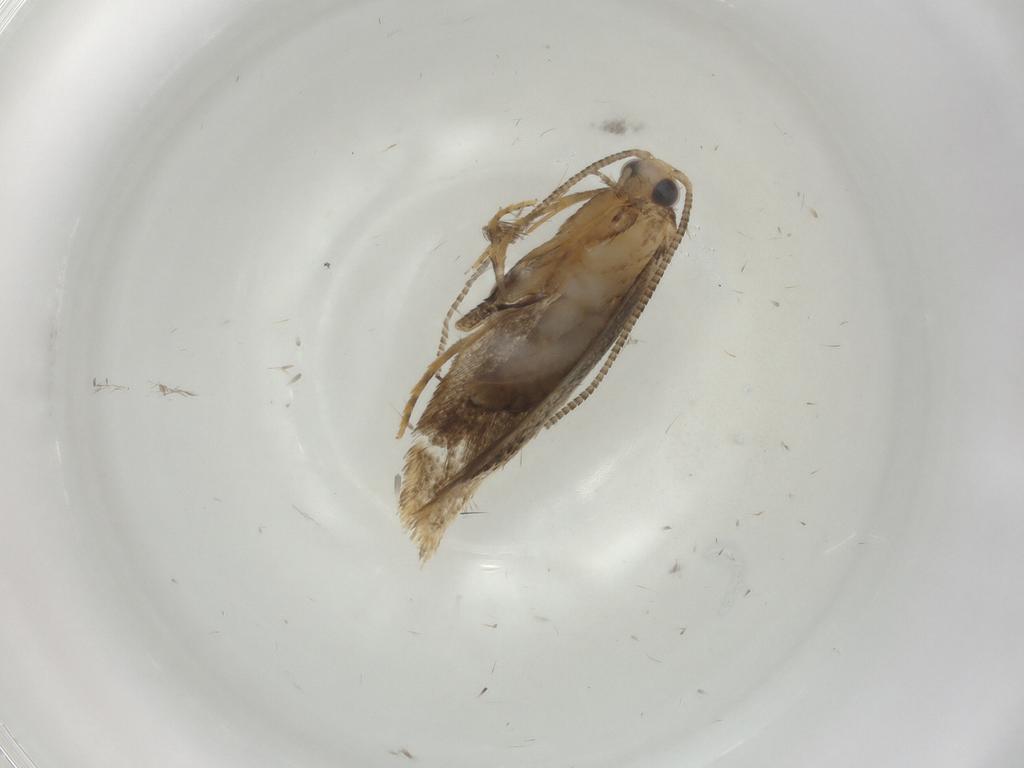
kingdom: Animalia
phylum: Arthropoda
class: Insecta
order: Lepidoptera
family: Tineidae
